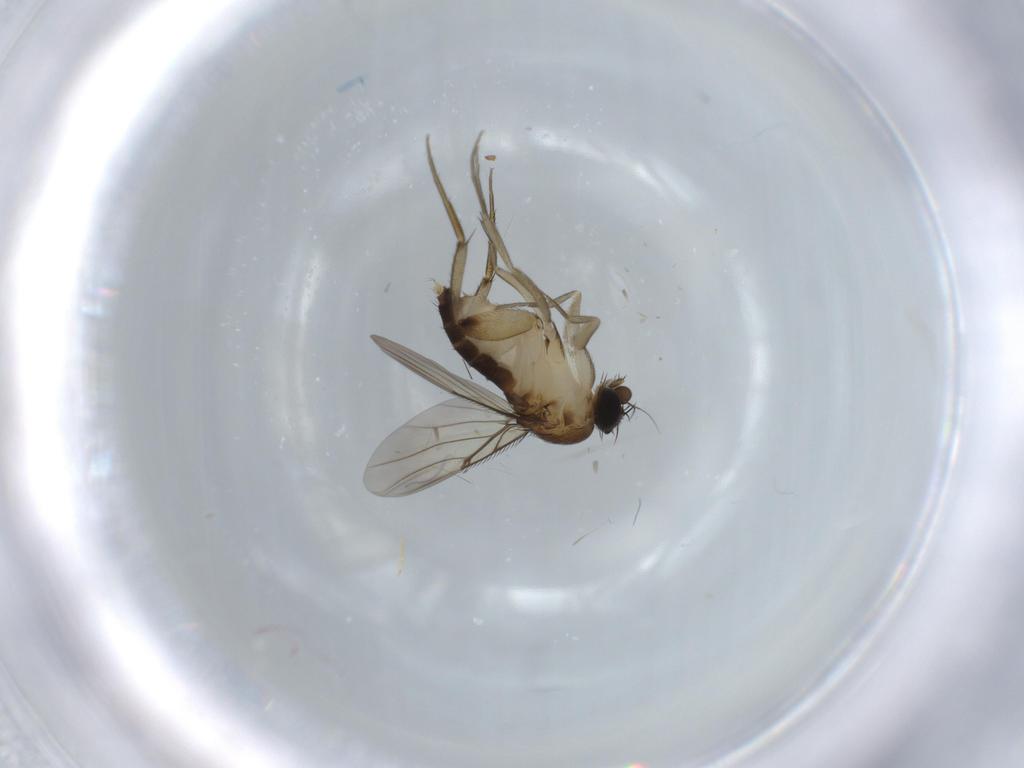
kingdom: Animalia
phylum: Arthropoda
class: Insecta
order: Diptera
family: Phoridae
